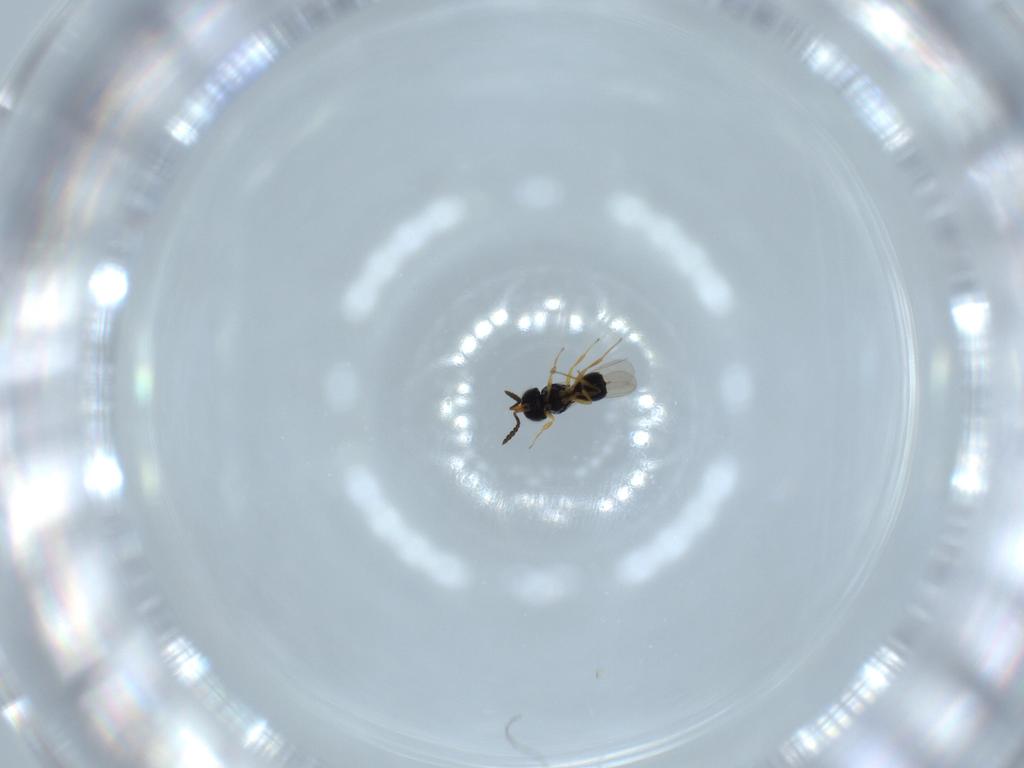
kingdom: Animalia
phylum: Arthropoda
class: Insecta
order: Hymenoptera
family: Scelionidae
